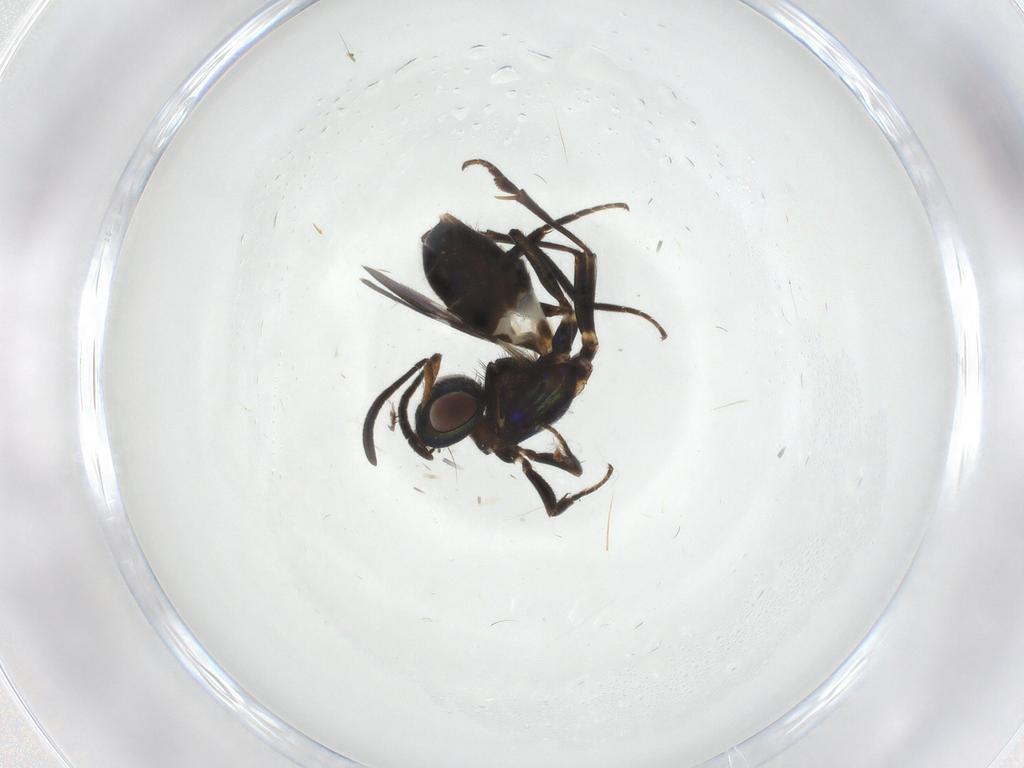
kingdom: Animalia
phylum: Arthropoda
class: Insecta
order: Hymenoptera
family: Eupelmidae
